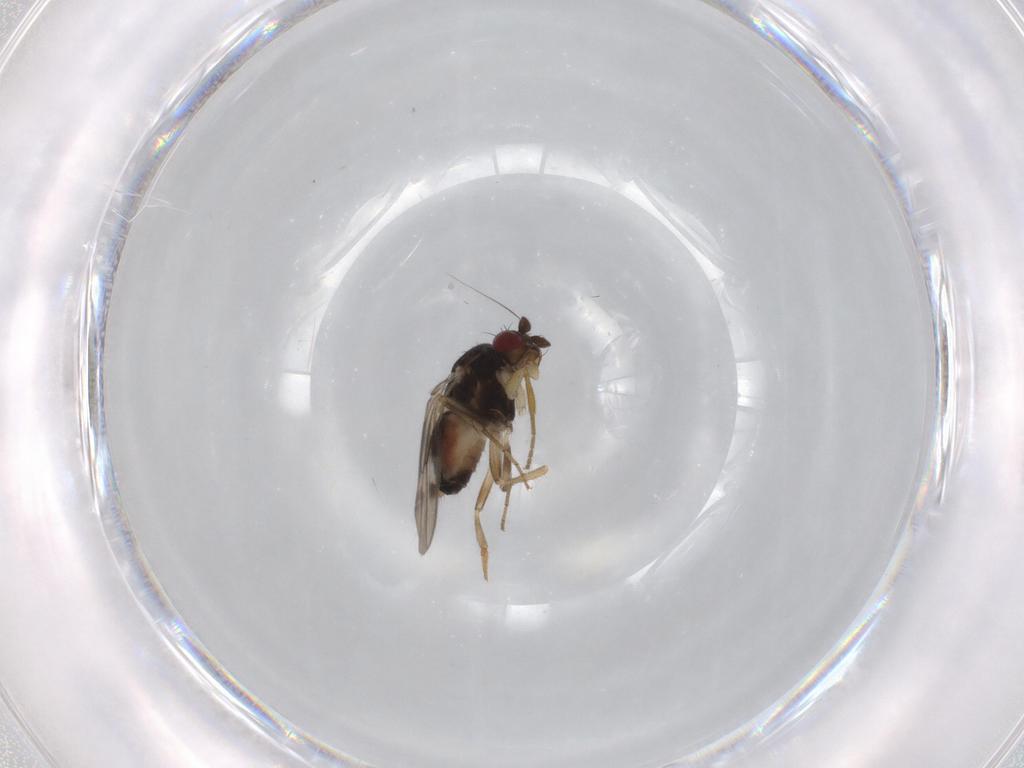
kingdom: Animalia
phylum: Arthropoda
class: Insecta
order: Diptera
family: Sphaeroceridae
